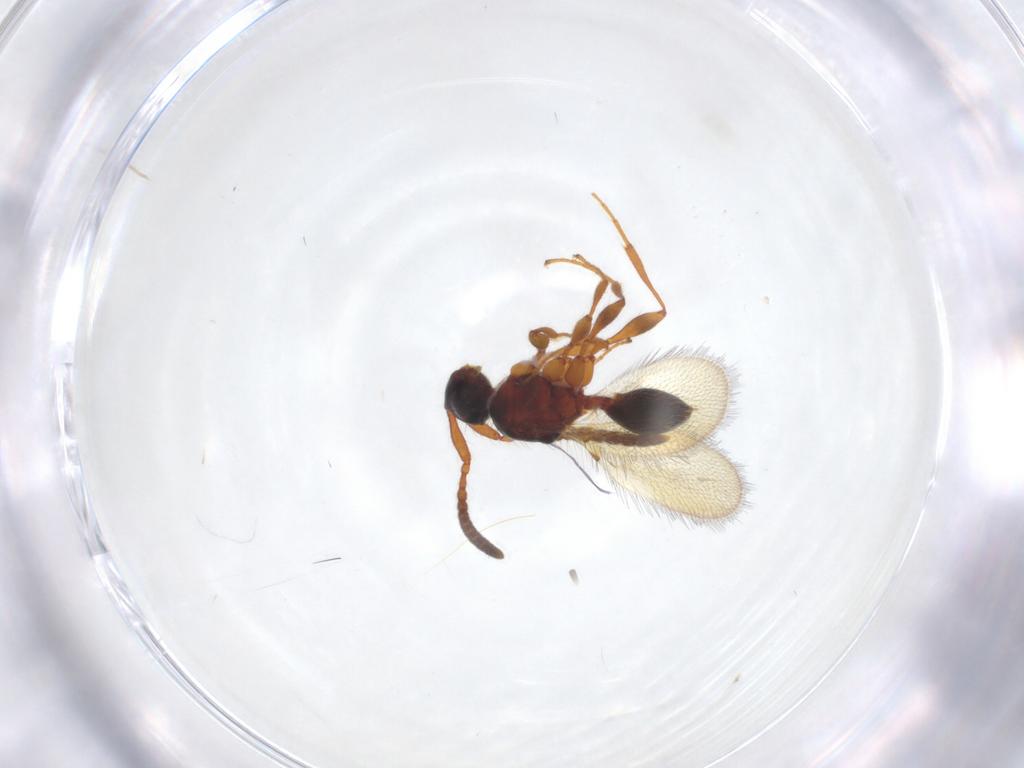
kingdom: Animalia
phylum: Arthropoda
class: Insecta
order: Hymenoptera
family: Diapriidae
